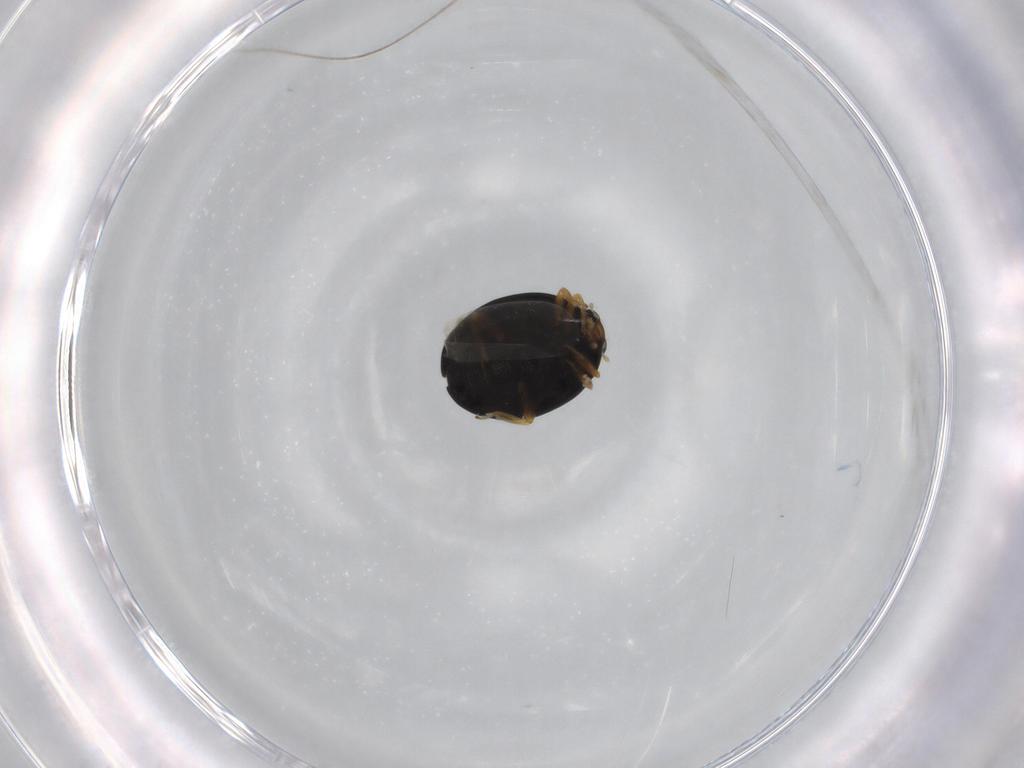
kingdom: Animalia
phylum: Arthropoda
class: Insecta
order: Coleoptera
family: Coccinellidae
